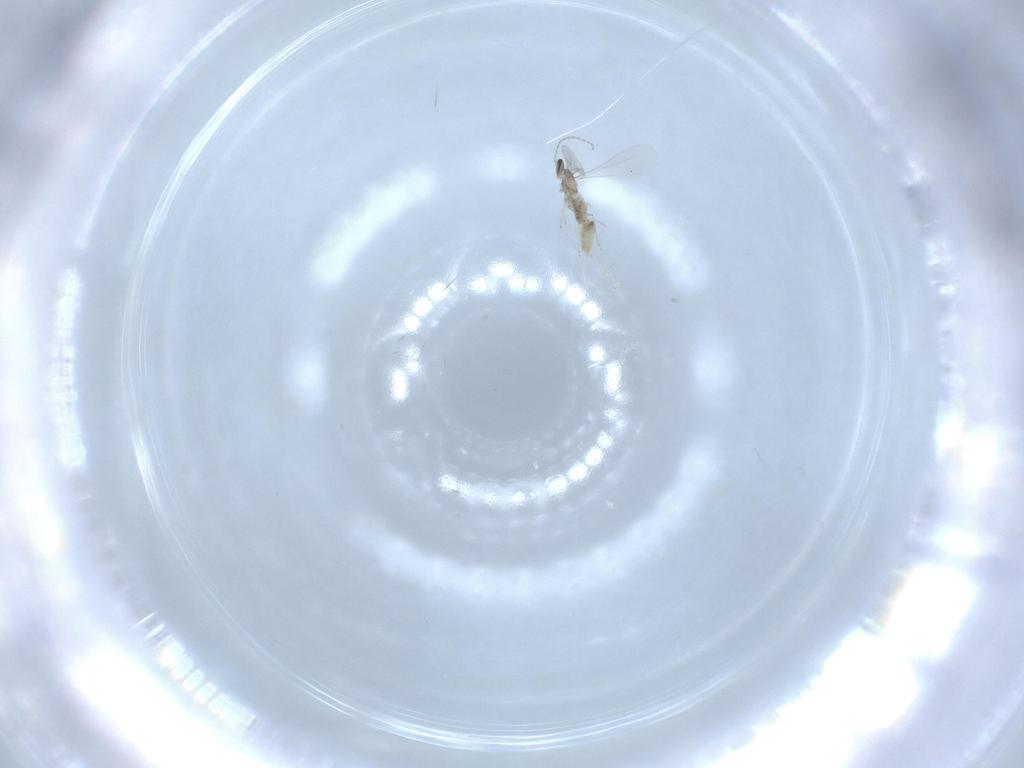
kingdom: Animalia
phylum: Arthropoda
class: Insecta
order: Diptera
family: Cecidomyiidae
